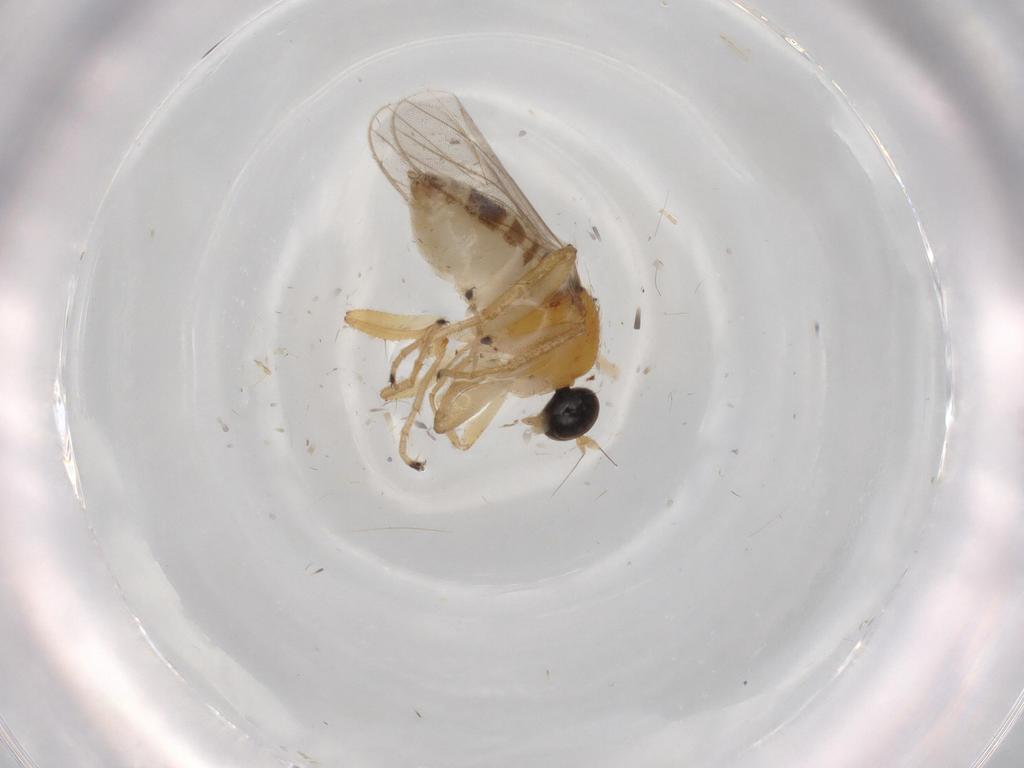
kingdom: Animalia
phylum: Arthropoda
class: Insecta
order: Diptera
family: Hybotidae
